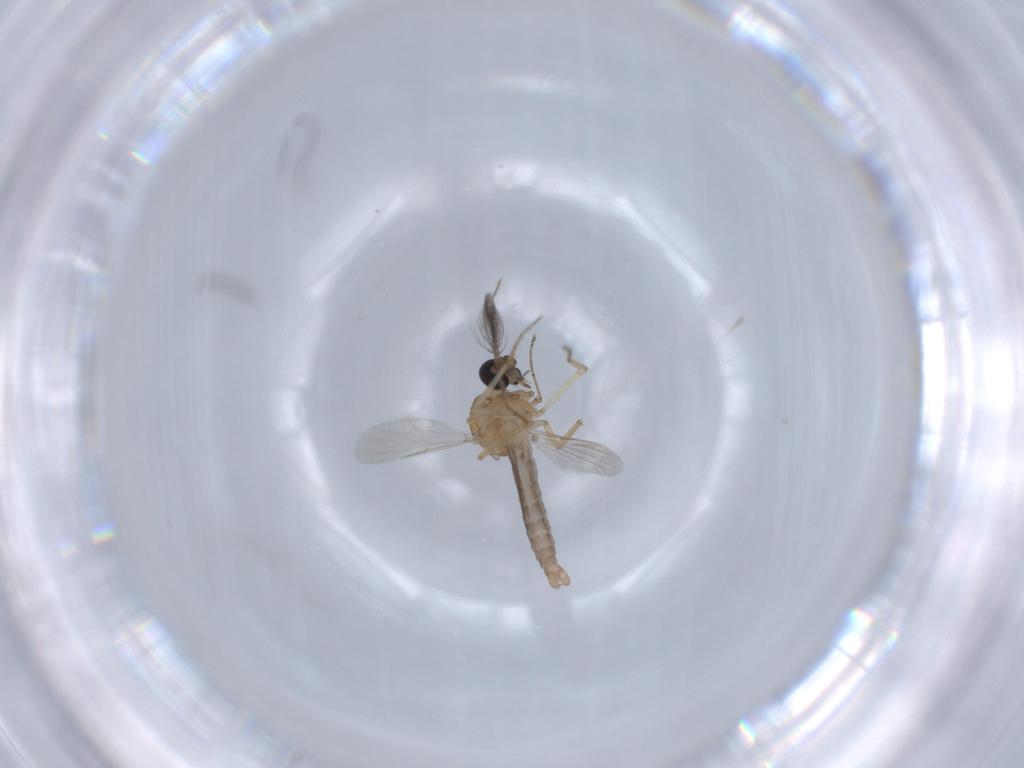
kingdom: Animalia
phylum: Arthropoda
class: Insecta
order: Diptera
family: Ceratopogonidae
